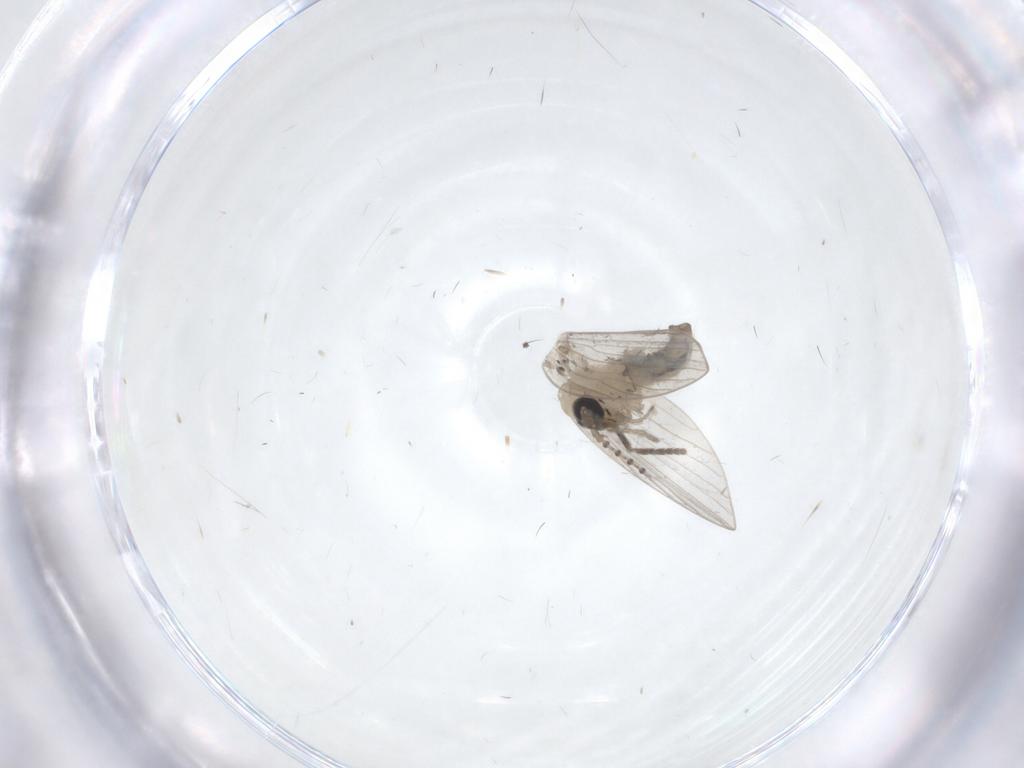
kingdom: Animalia
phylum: Arthropoda
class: Insecta
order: Diptera
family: Psychodidae
